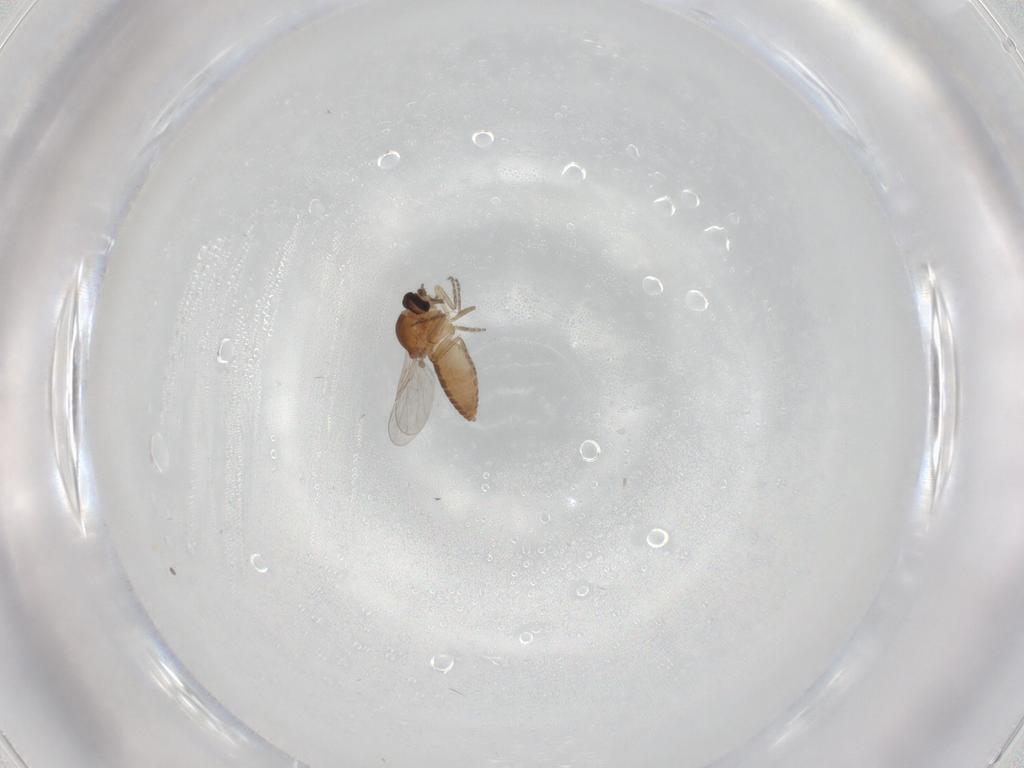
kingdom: Animalia
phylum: Arthropoda
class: Insecta
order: Diptera
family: Ceratopogonidae
